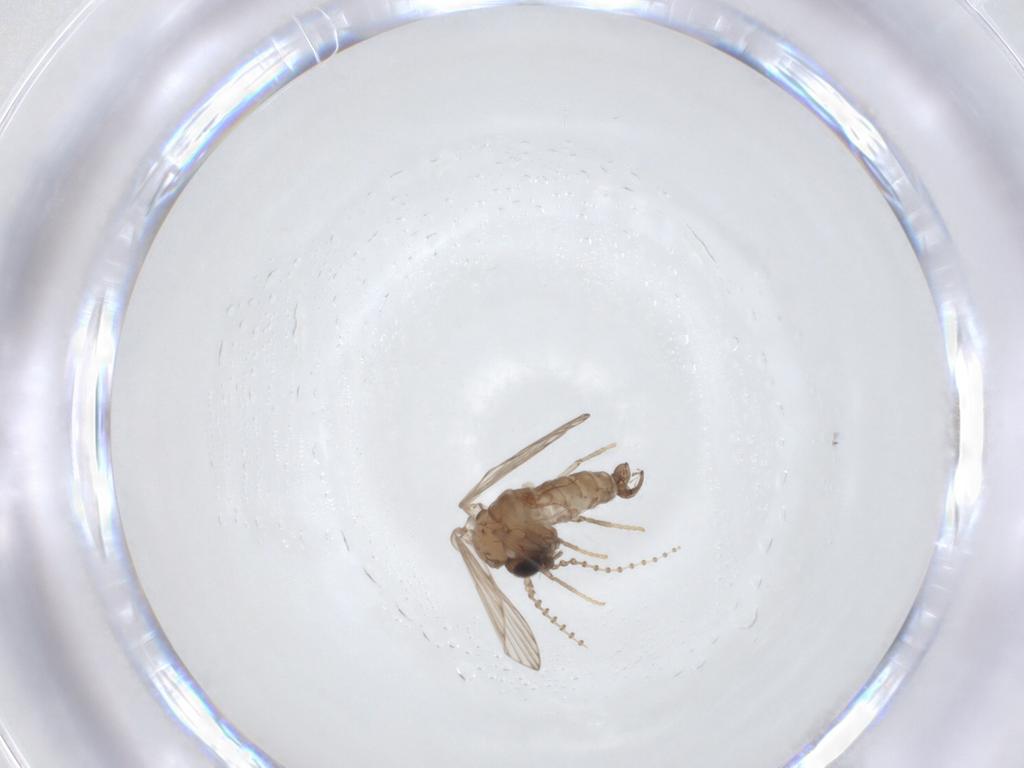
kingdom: Animalia
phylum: Arthropoda
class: Insecta
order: Diptera
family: Psychodidae
